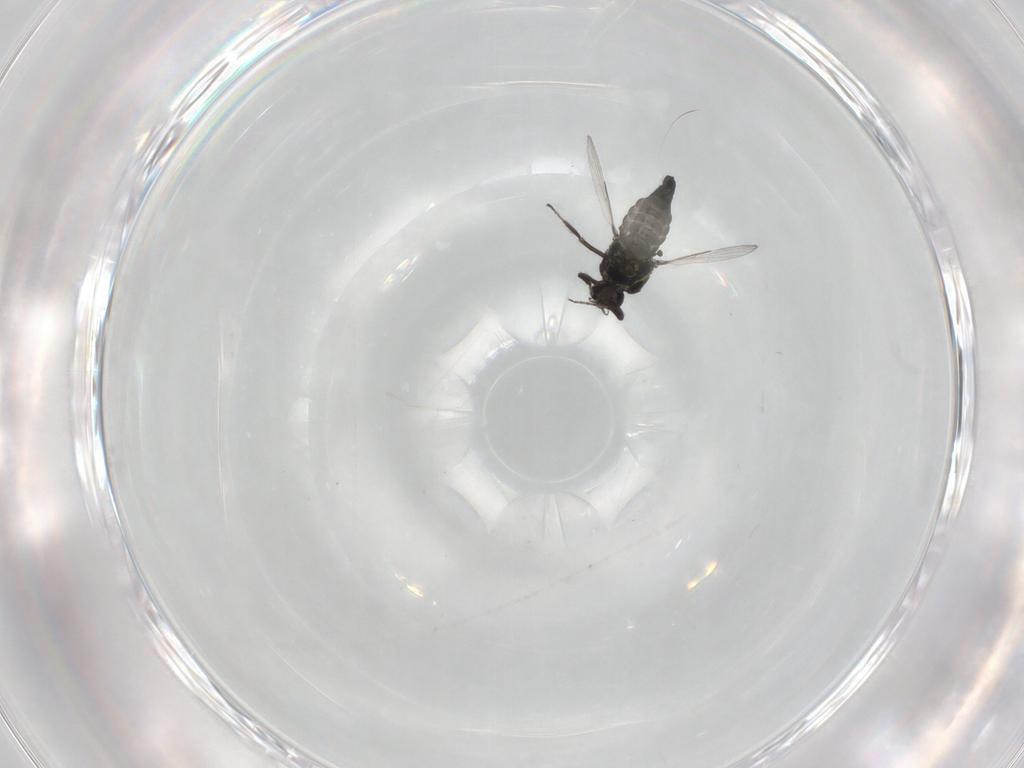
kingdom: Animalia
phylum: Arthropoda
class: Insecta
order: Diptera
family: Ceratopogonidae
